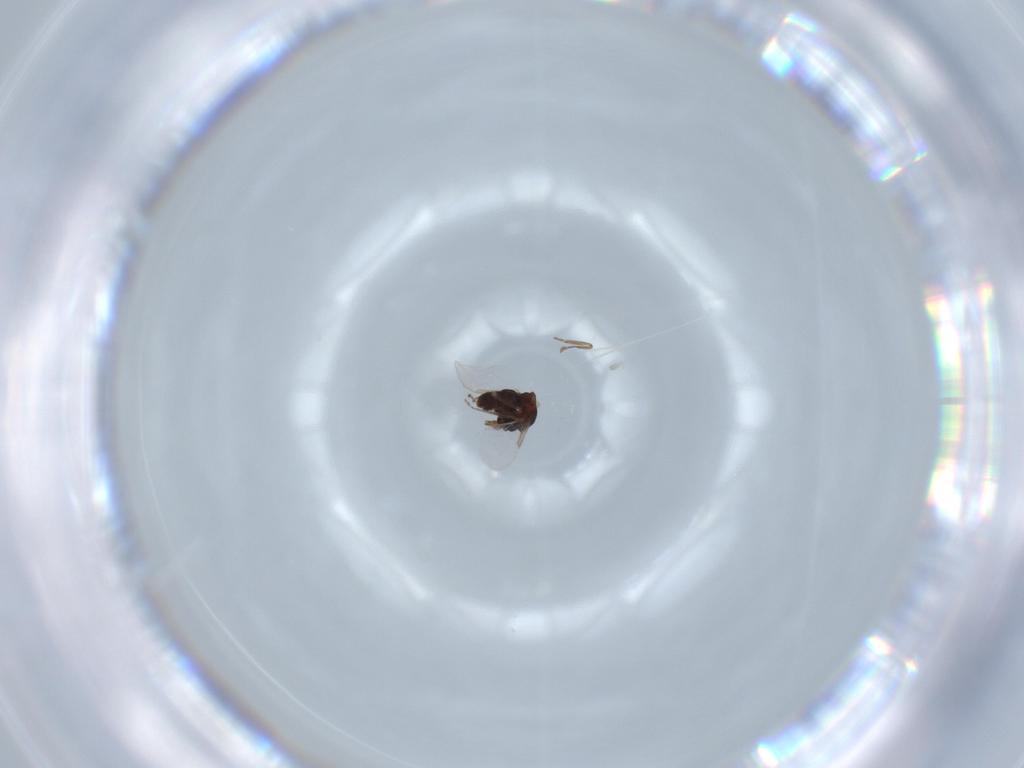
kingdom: Animalia
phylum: Arthropoda
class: Insecta
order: Diptera
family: Ceratopogonidae
